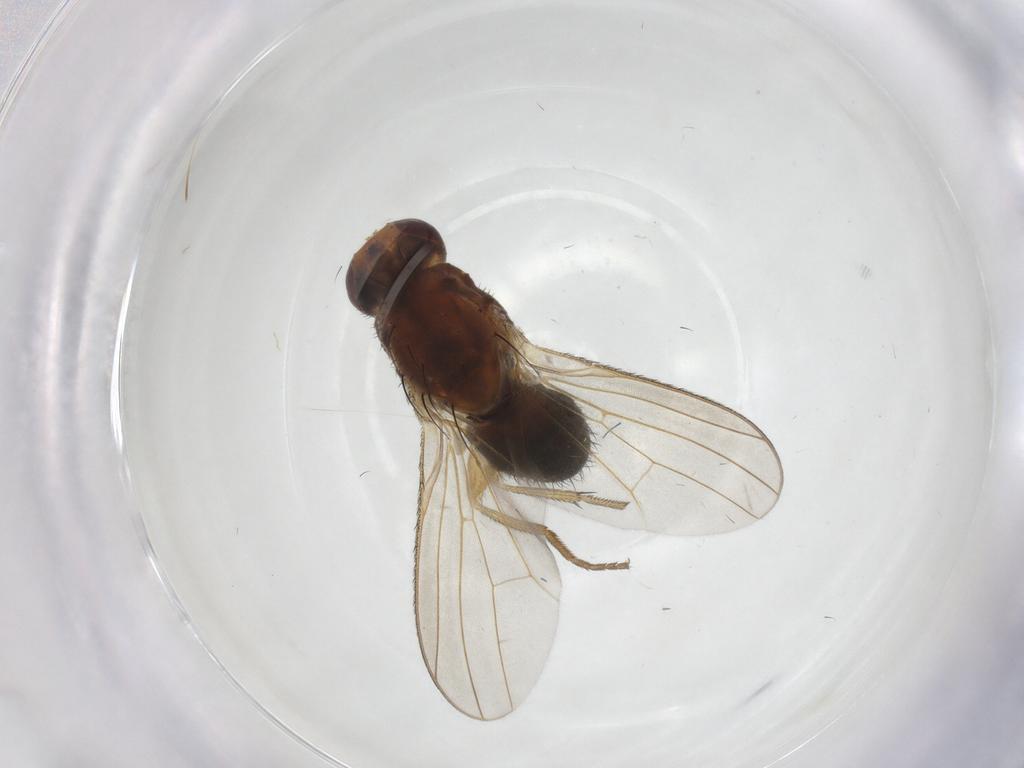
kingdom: Animalia
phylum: Arthropoda
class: Insecta
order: Diptera
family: Heleomyzidae
